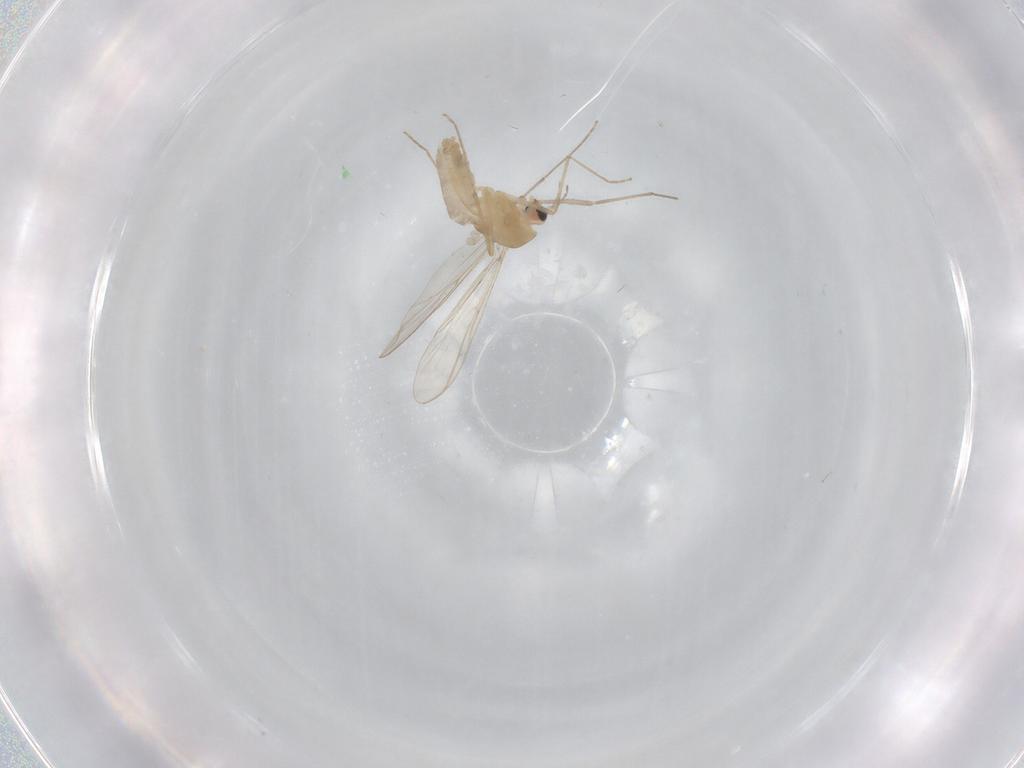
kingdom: Animalia
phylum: Arthropoda
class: Insecta
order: Diptera
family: Chironomidae
